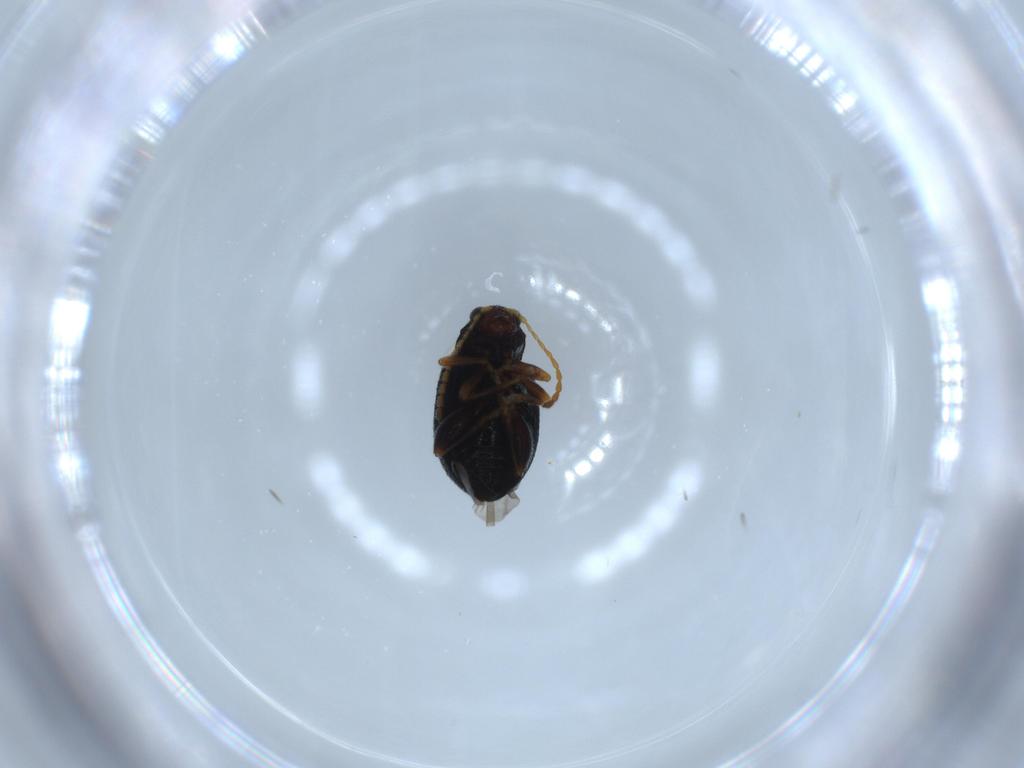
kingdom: Animalia
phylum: Arthropoda
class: Insecta
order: Coleoptera
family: Chrysomelidae
